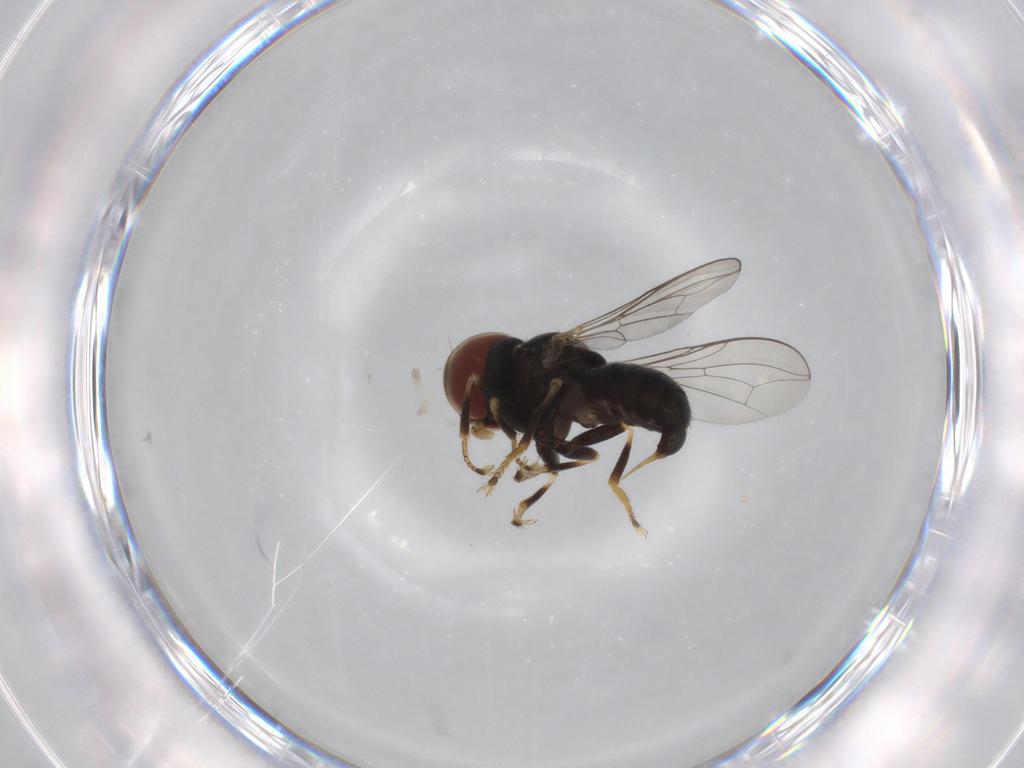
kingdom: Animalia
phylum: Arthropoda
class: Insecta
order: Diptera
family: Pipunculidae
